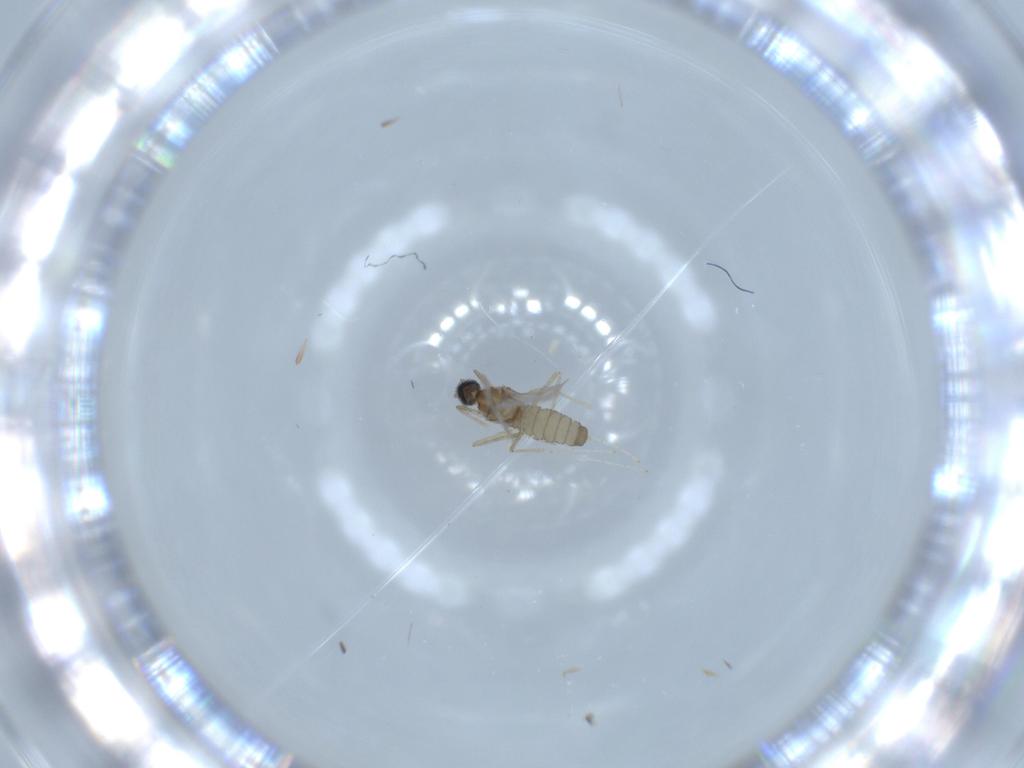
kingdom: Animalia
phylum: Arthropoda
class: Insecta
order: Diptera
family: Cecidomyiidae
